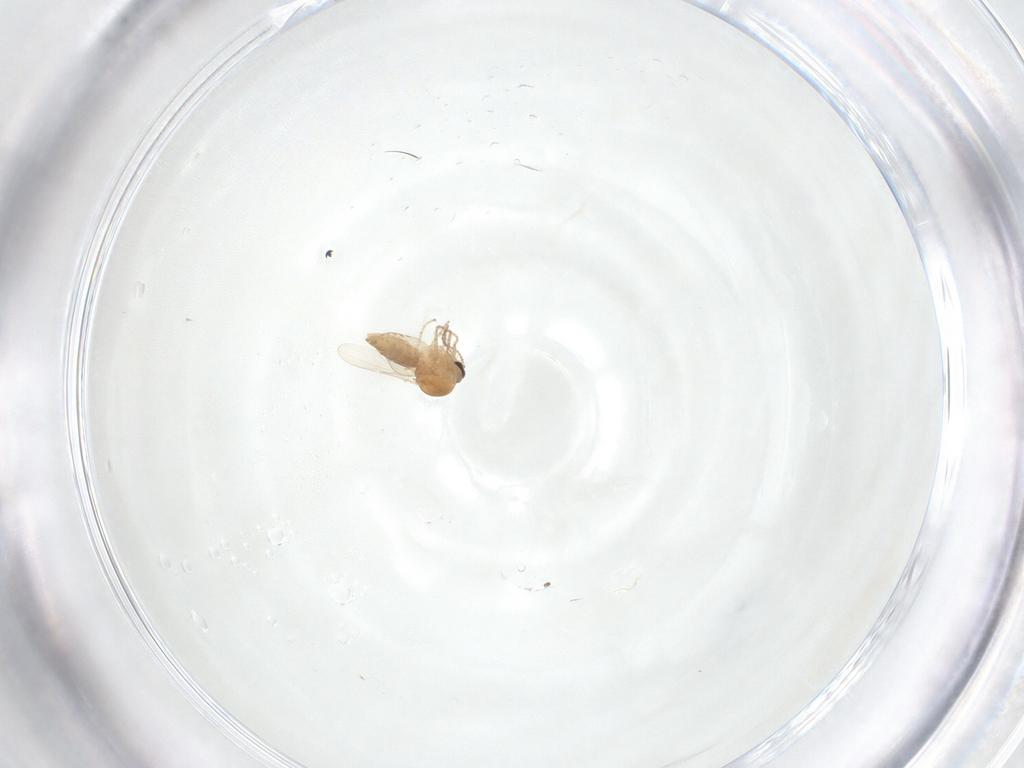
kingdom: Animalia
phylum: Arthropoda
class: Insecta
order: Diptera
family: Ceratopogonidae
